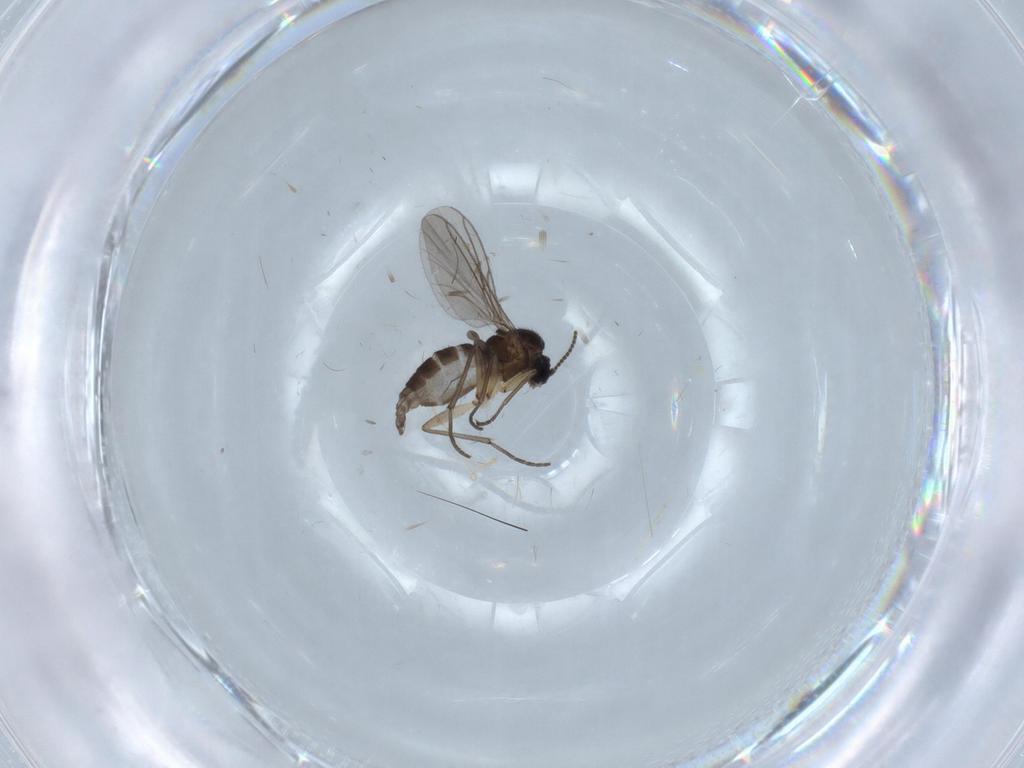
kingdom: Animalia
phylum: Arthropoda
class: Insecta
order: Diptera
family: Sciaridae
